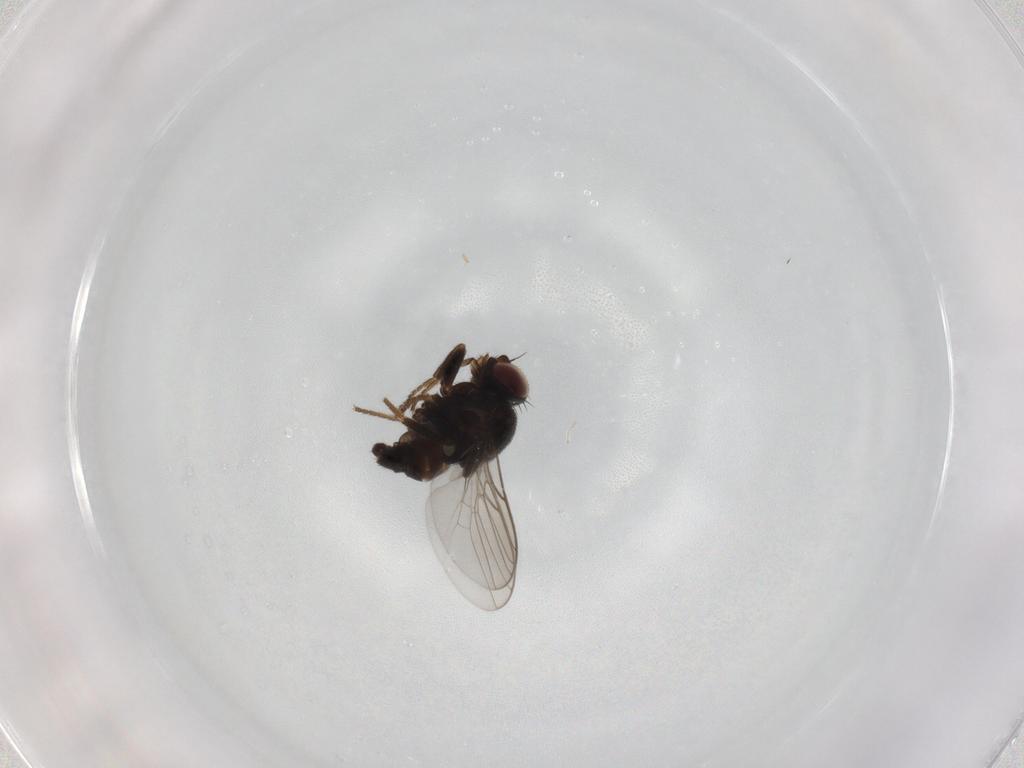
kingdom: Animalia
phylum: Arthropoda
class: Insecta
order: Diptera
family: Chloropidae
